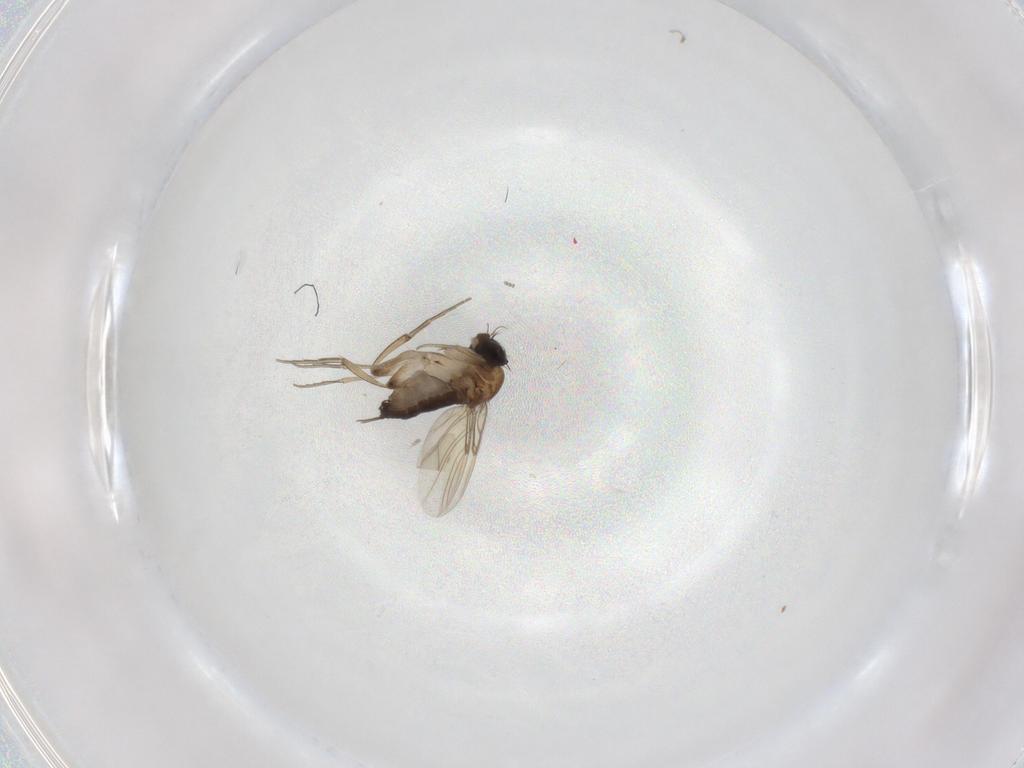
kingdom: Animalia
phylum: Arthropoda
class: Insecta
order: Diptera
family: Phoridae
